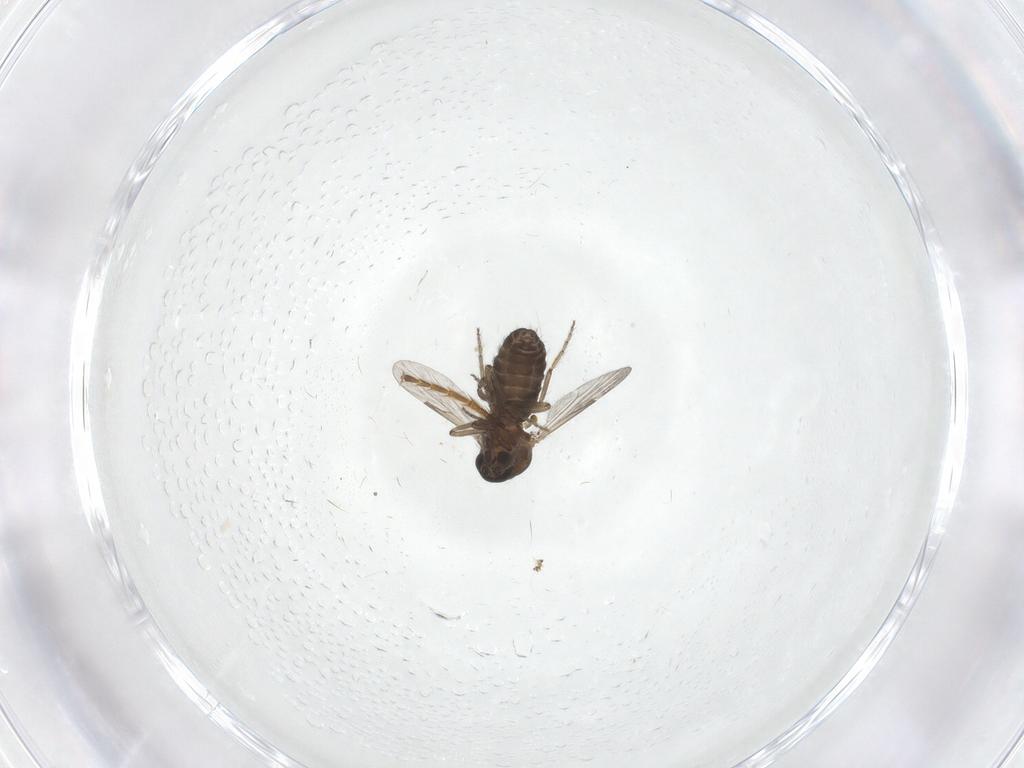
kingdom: Animalia
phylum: Arthropoda
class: Insecta
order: Diptera
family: Ceratopogonidae
